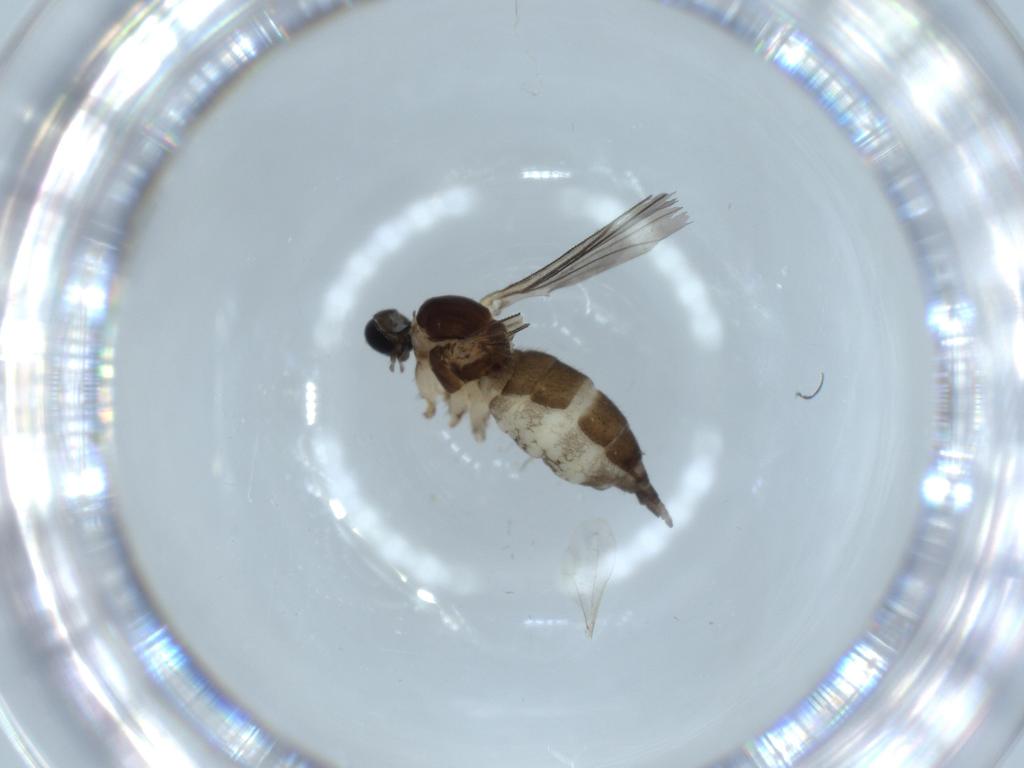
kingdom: Animalia
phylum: Arthropoda
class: Insecta
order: Diptera
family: Sciaridae
